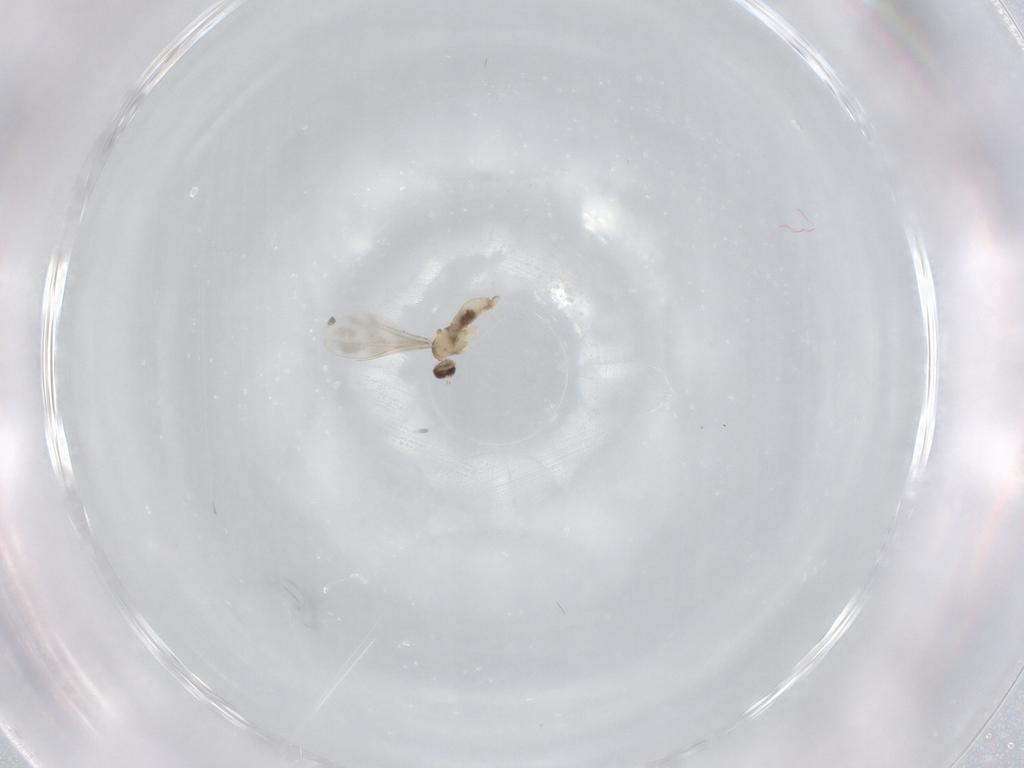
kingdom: Animalia
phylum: Arthropoda
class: Insecta
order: Diptera
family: Cecidomyiidae
